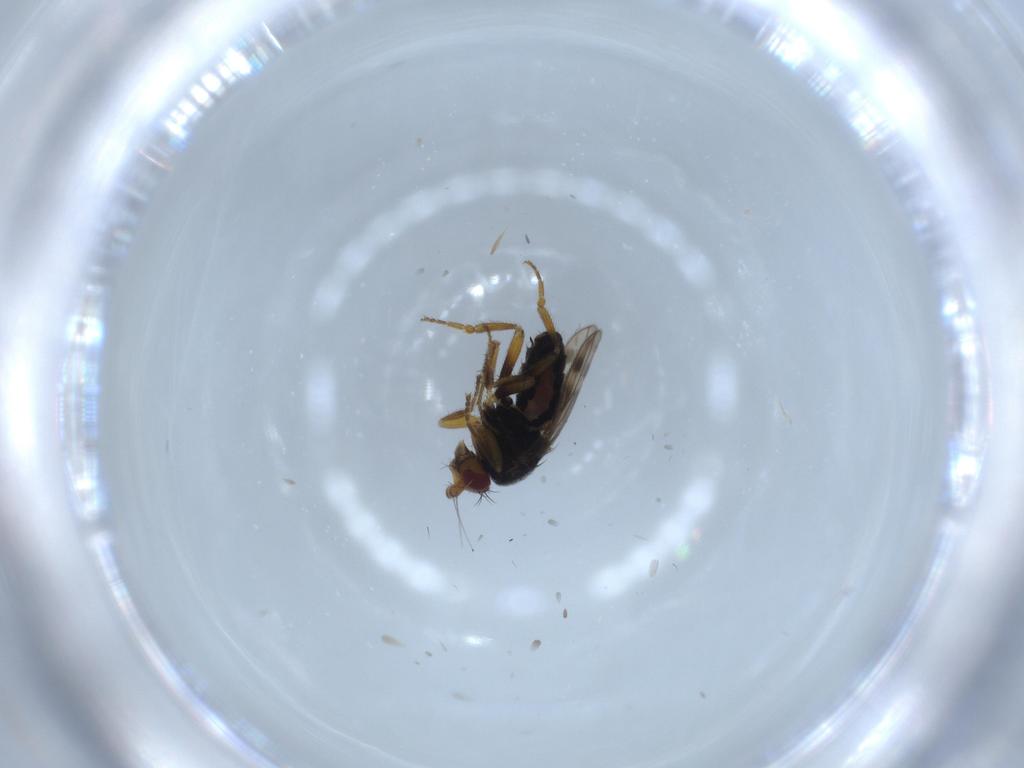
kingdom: Animalia
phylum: Arthropoda
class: Insecta
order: Diptera
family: Sphaeroceridae
